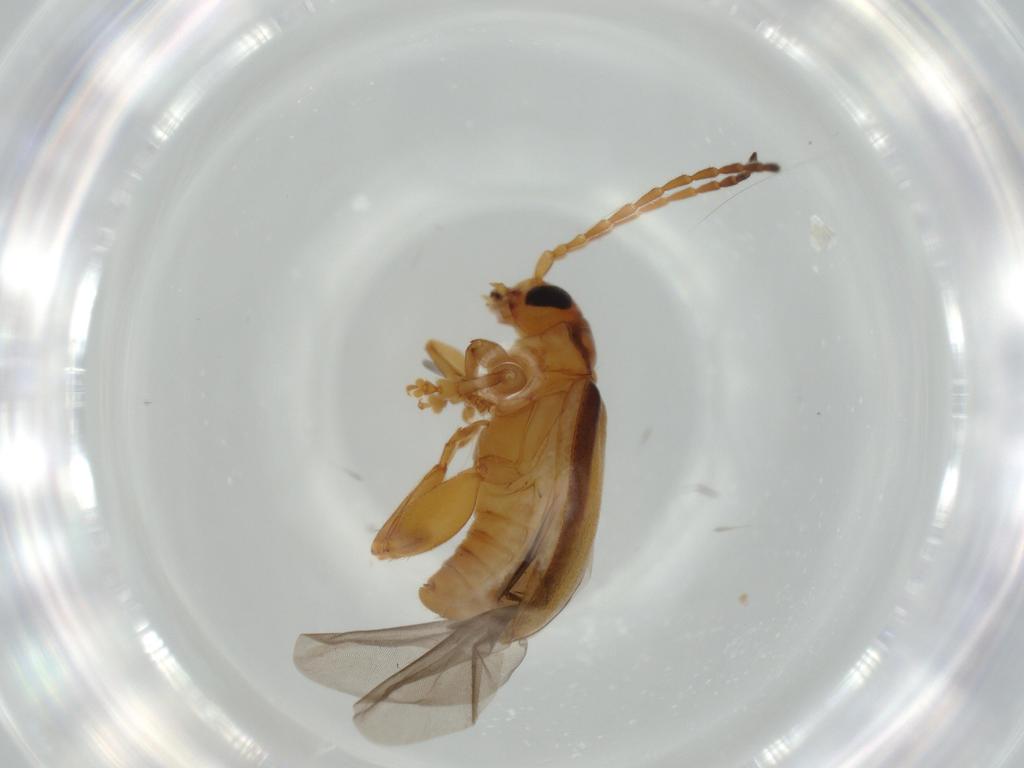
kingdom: Animalia
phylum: Arthropoda
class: Insecta
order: Coleoptera
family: Chrysomelidae
